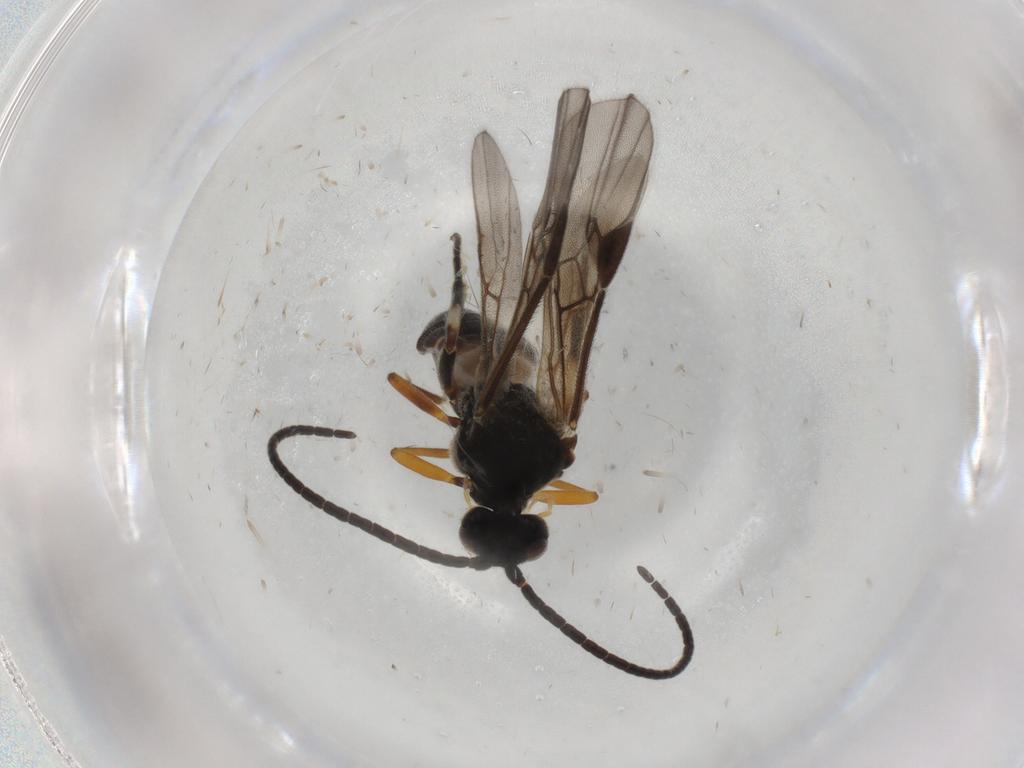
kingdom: Animalia
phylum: Arthropoda
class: Insecta
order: Hymenoptera
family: Braconidae
